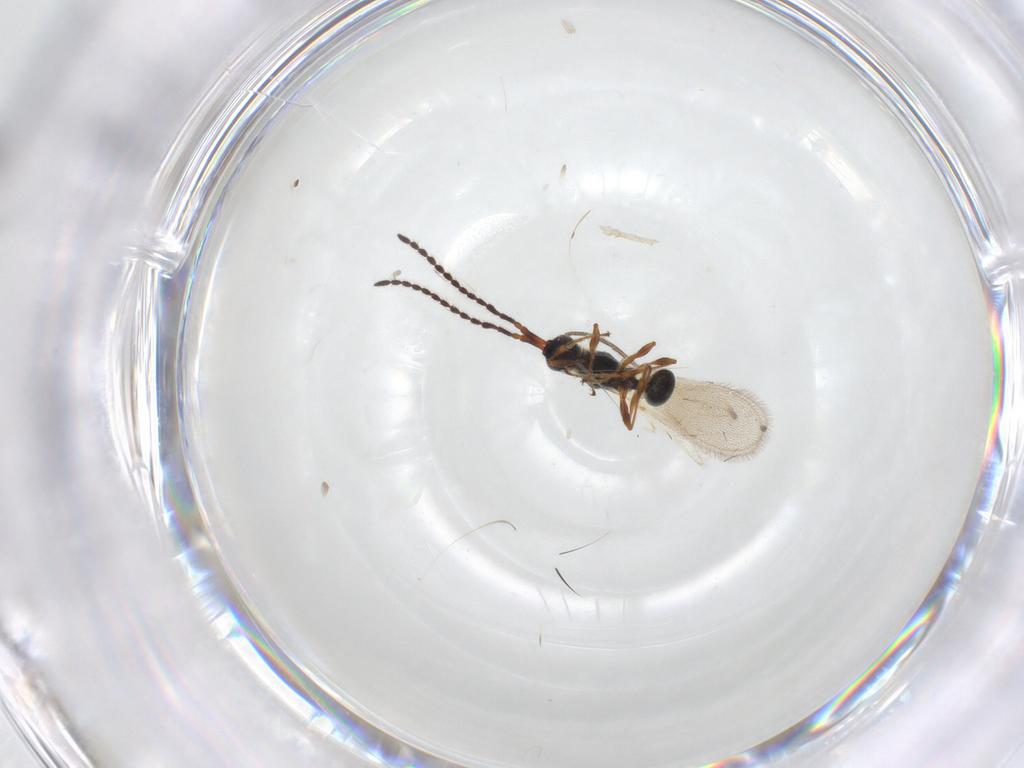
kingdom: Animalia
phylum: Arthropoda
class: Insecta
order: Hymenoptera
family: Diapriidae
